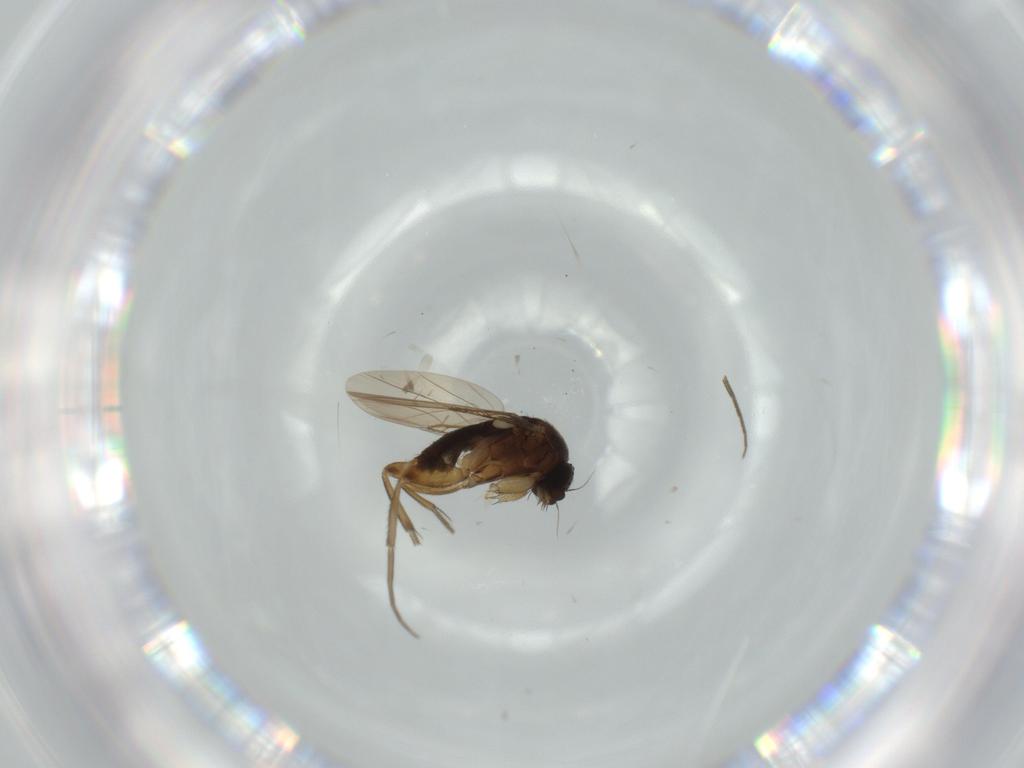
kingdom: Animalia
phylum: Arthropoda
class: Insecta
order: Diptera
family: Phoridae
